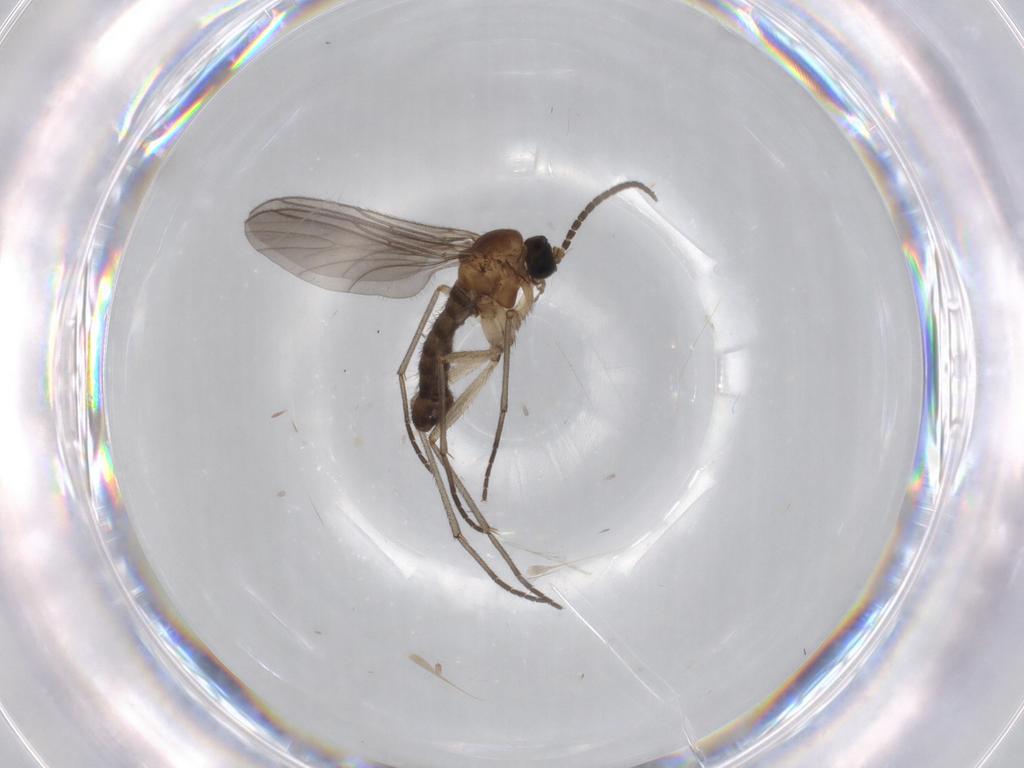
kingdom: Animalia
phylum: Arthropoda
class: Insecta
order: Diptera
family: Sciaridae
